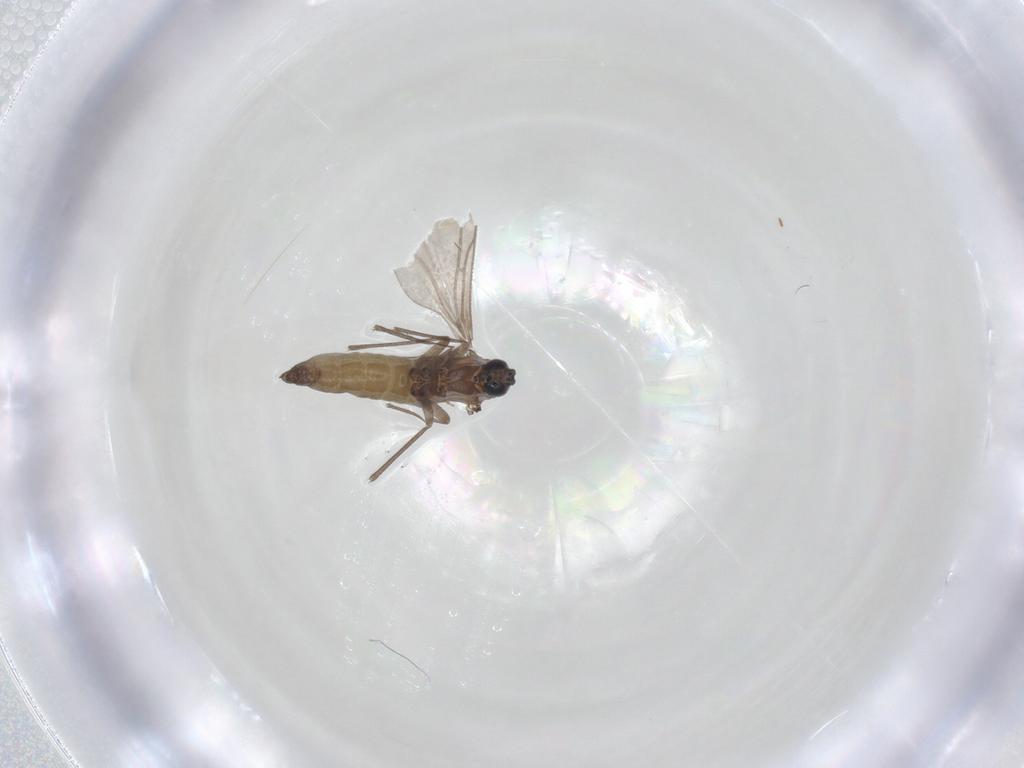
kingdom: Animalia
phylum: Arthropoda
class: Insecta
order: Diptera
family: Sciaridae
